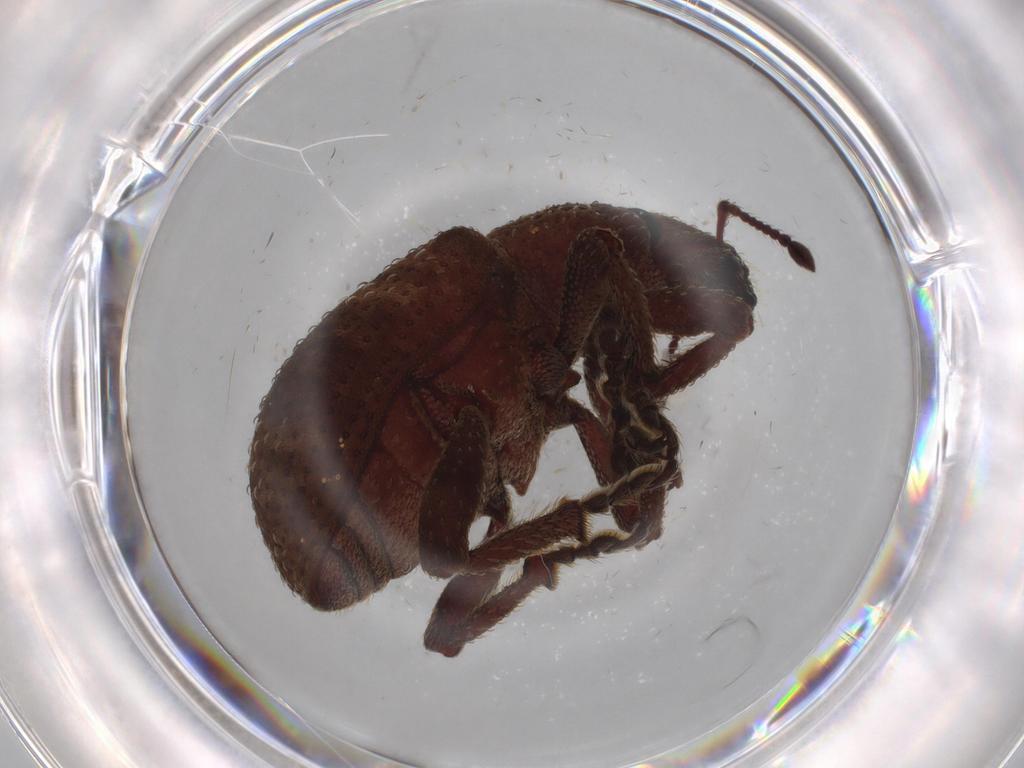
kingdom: Animalia
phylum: Arthropoda
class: Insecta
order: Coleoptera
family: Curculionidae
